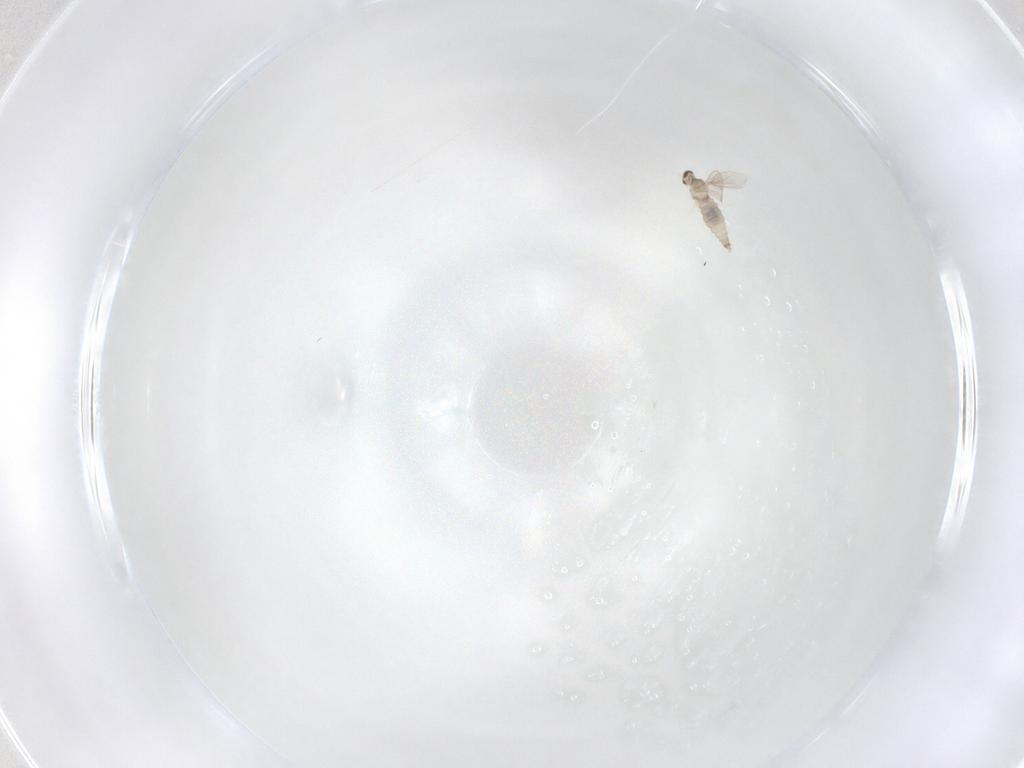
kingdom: Animalia
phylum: Arthropoda
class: Insecta
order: Diptera
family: Cecidomyiidae
